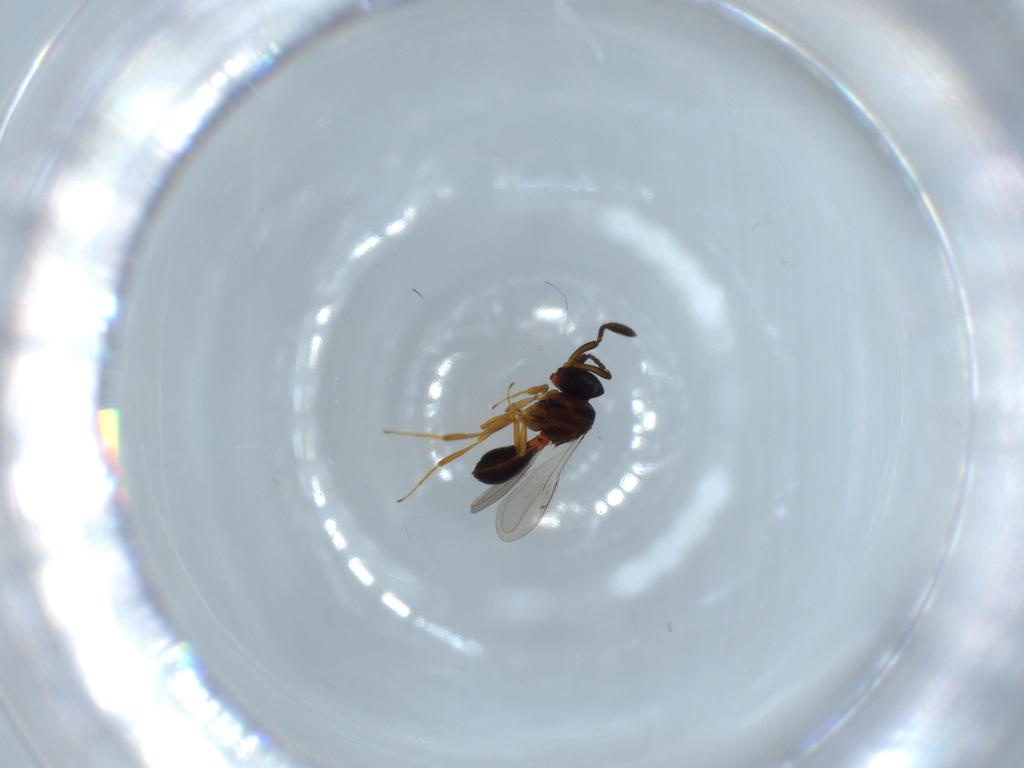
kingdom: Animalia
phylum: Arthropoda
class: Insecta
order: Hymenoptera
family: Scelionidae
